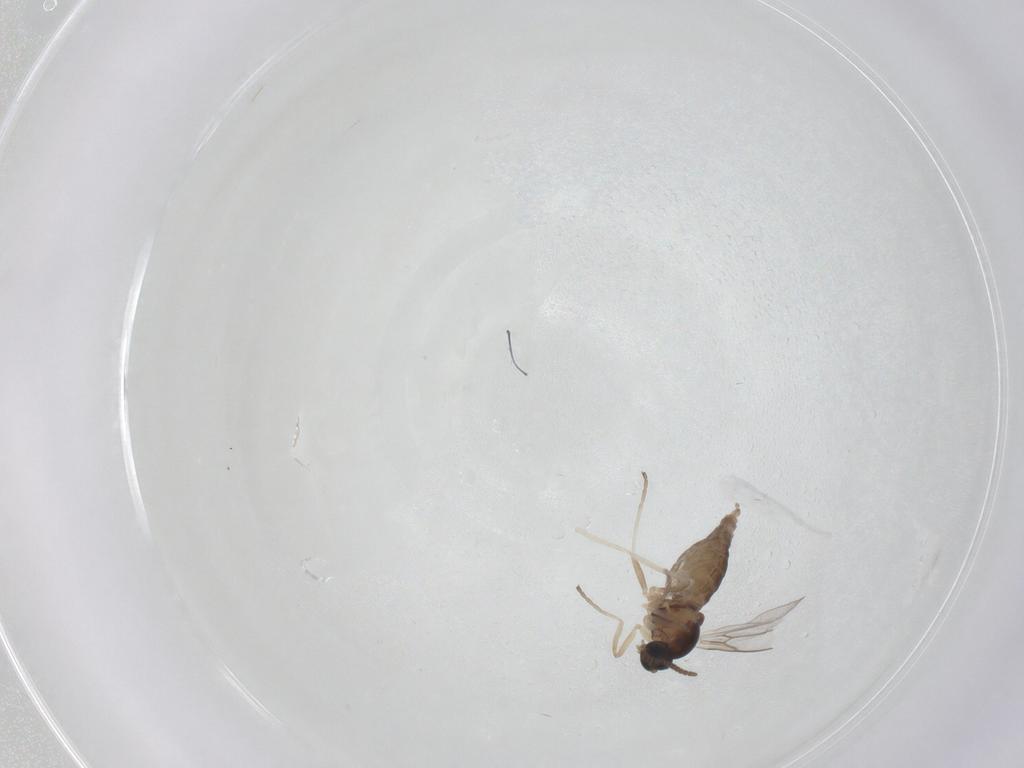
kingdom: Animalia
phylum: Arthropoda
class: Insecta
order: Diptera
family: Cecidomyiidae
